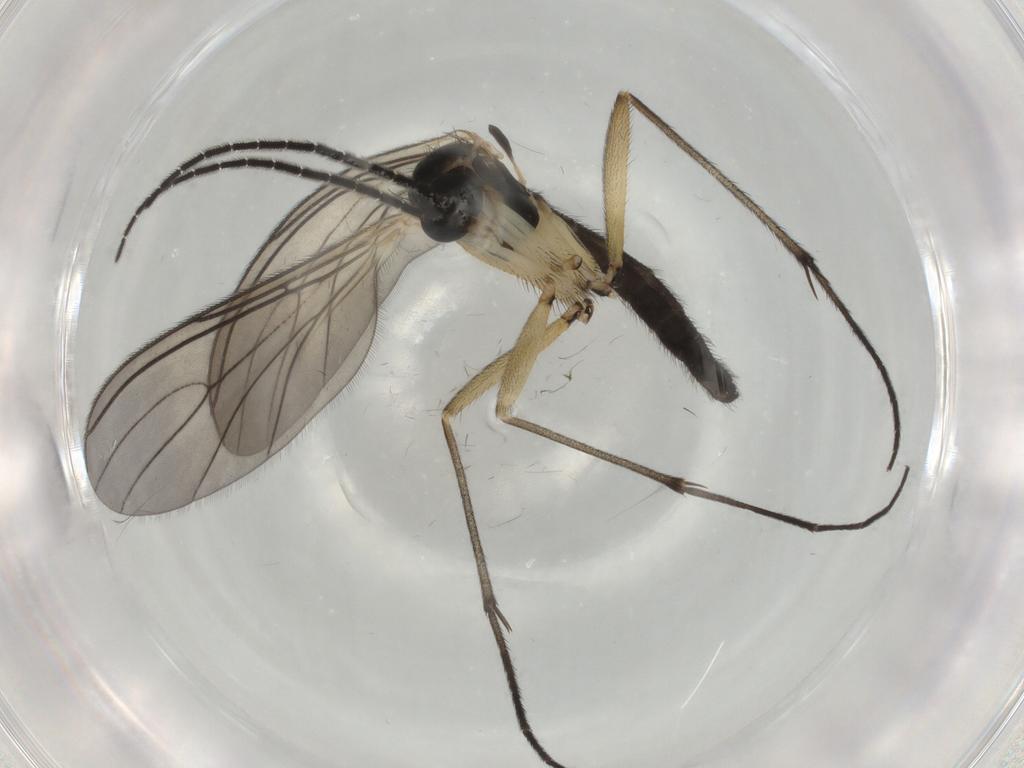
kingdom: Animalia
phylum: Arthropoda
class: Insecta
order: Diptera
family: Sciaridae
